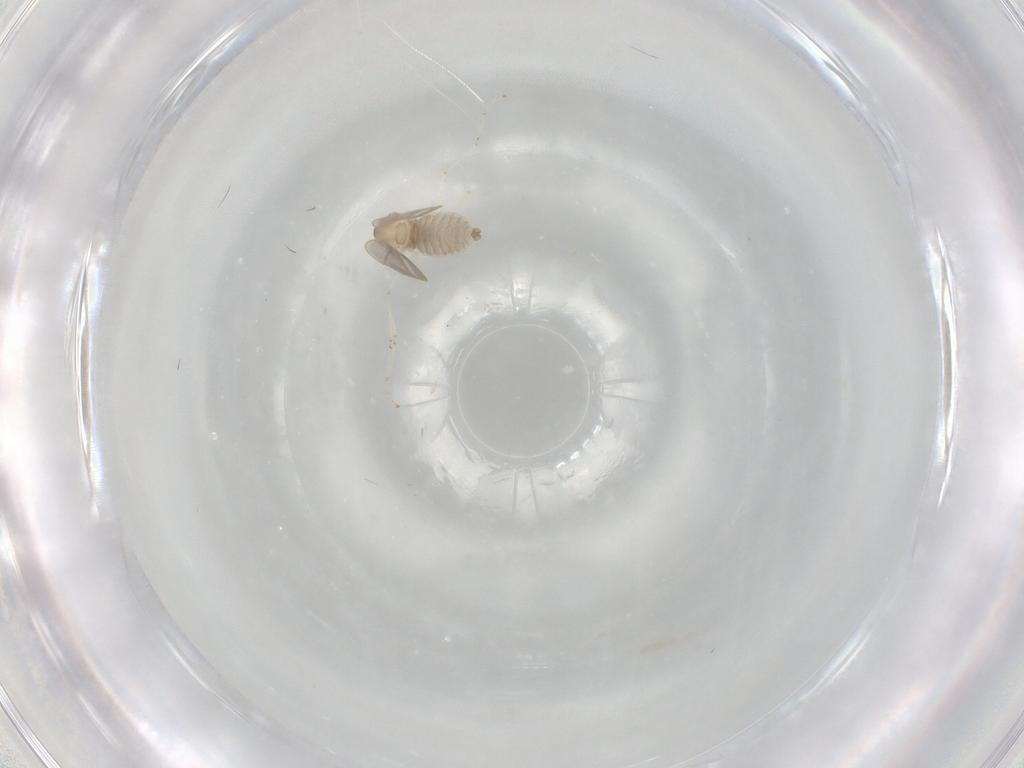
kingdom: Animalia
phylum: Arthropoda
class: Insecta
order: Diptera
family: Cecidomyiidae
